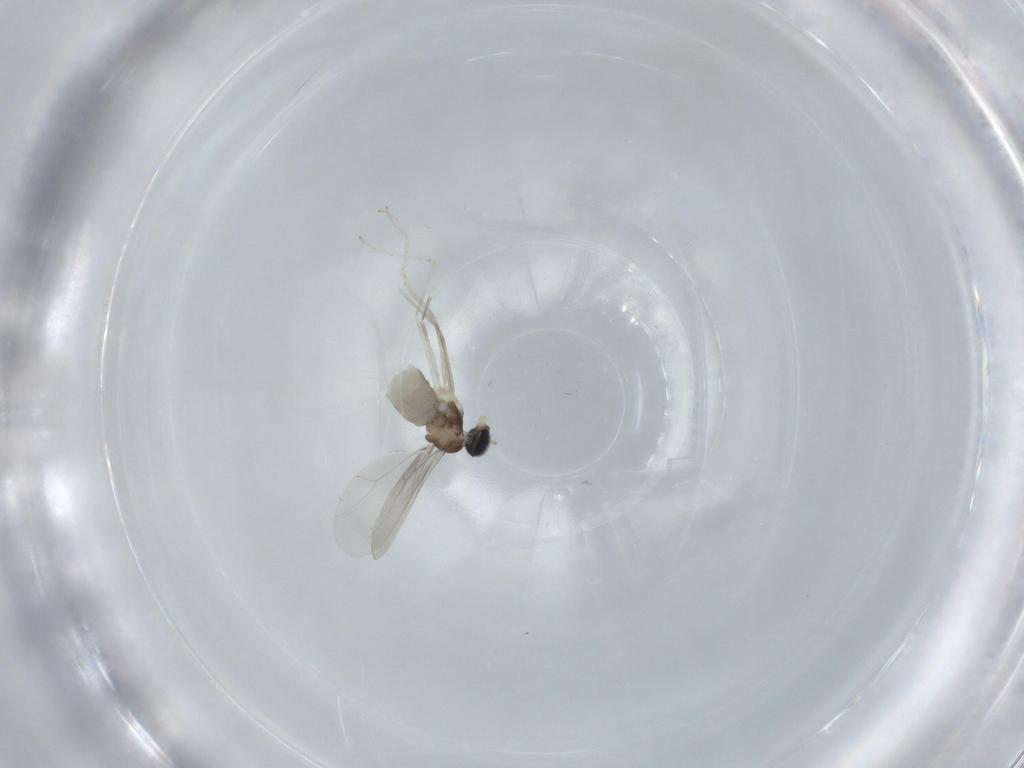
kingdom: Animalia
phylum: Arthropoda
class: Insecta
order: Diptera
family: Cecidomyiidae
